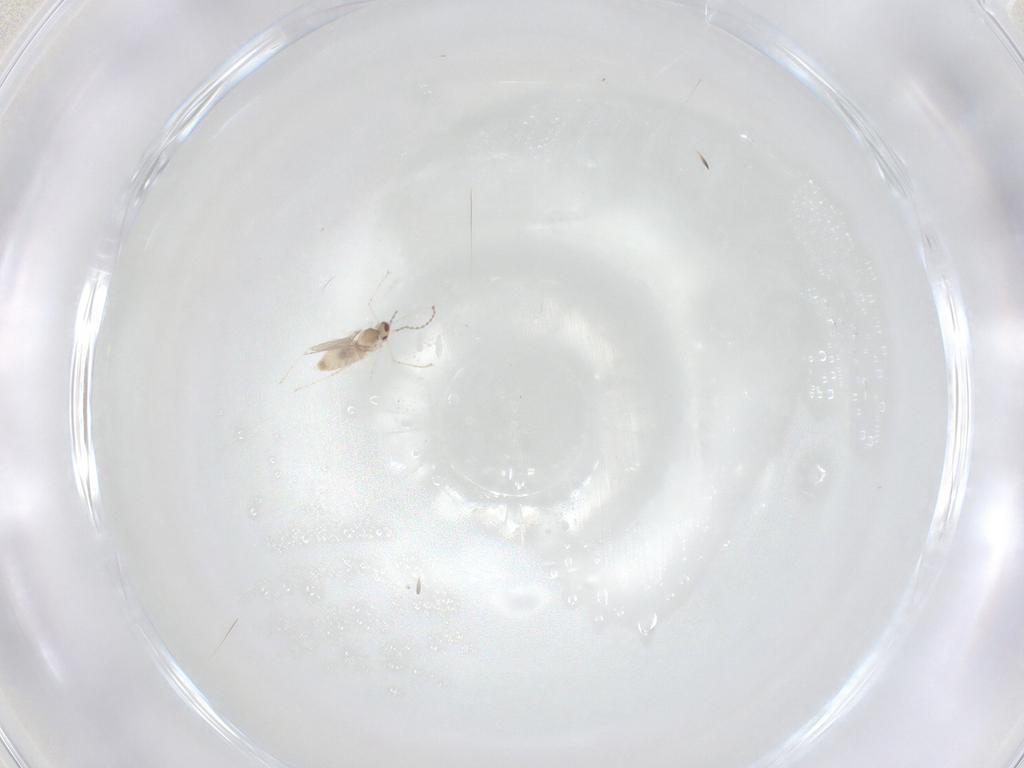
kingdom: Animalia
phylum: Arthropoda
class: Insecta
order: Diptera
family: Cecidomyiidae
